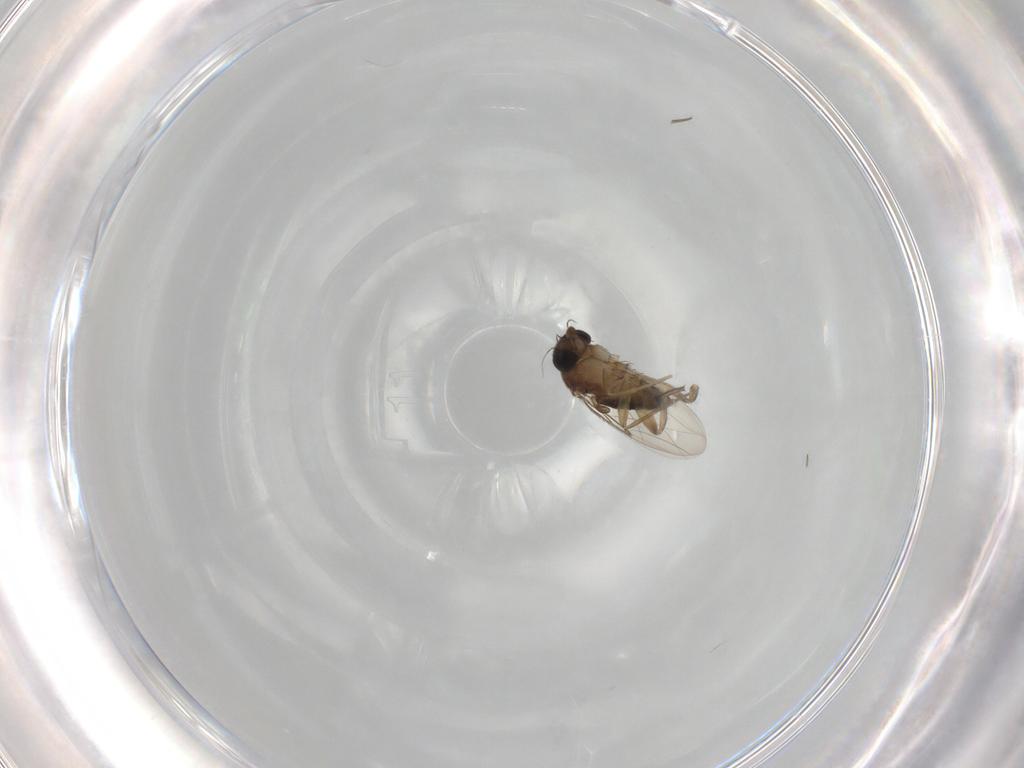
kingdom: Animalia
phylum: Arthropoda
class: Insecta
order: Diptera
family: Phoridae
